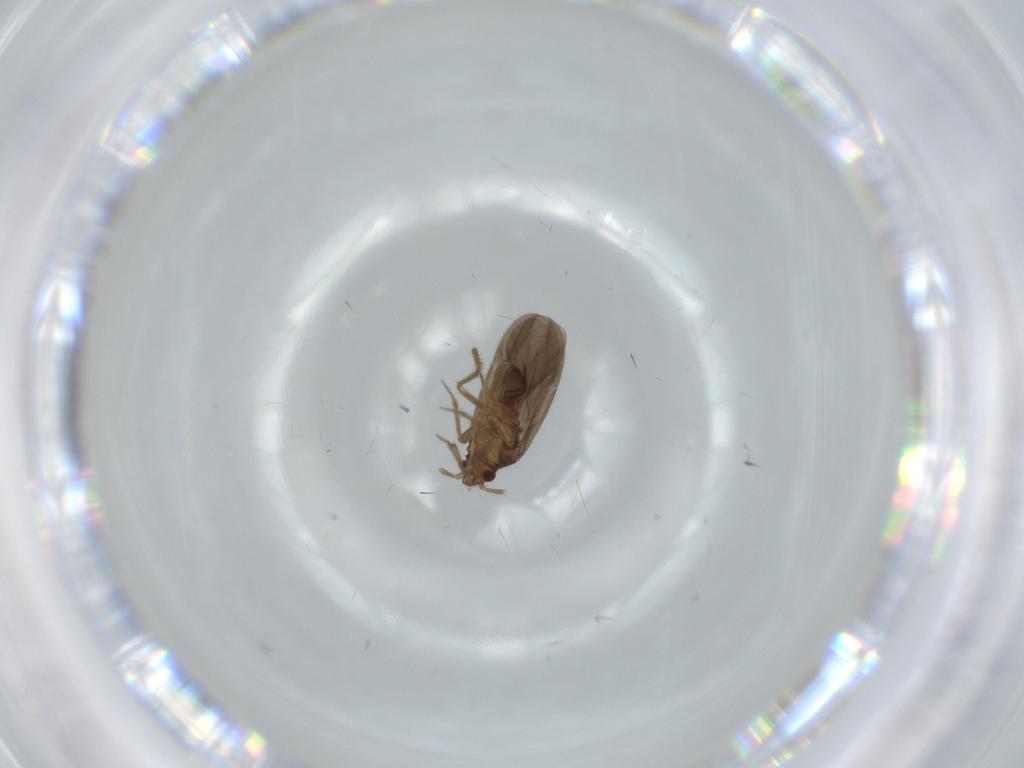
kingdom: Animalia
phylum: Arthropoda
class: Insecta
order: Hemiptera
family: Ceratocombidae
